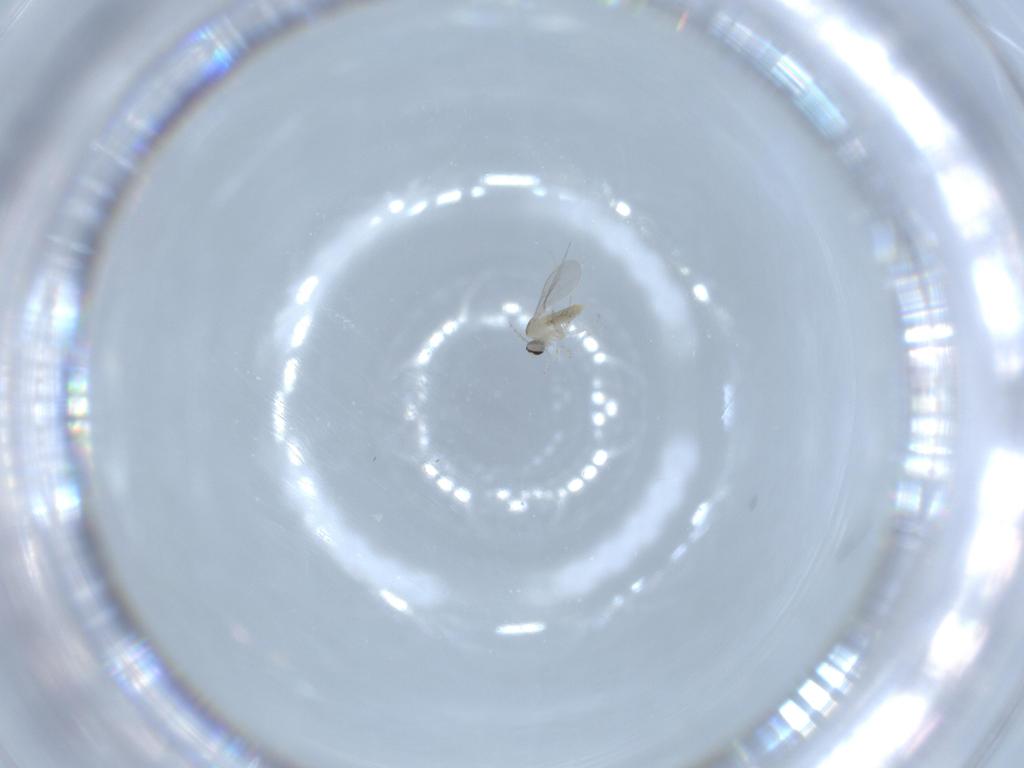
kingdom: Animalia
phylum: Arthropoda
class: Insecta
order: Diptera
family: Cecidomyiidae
